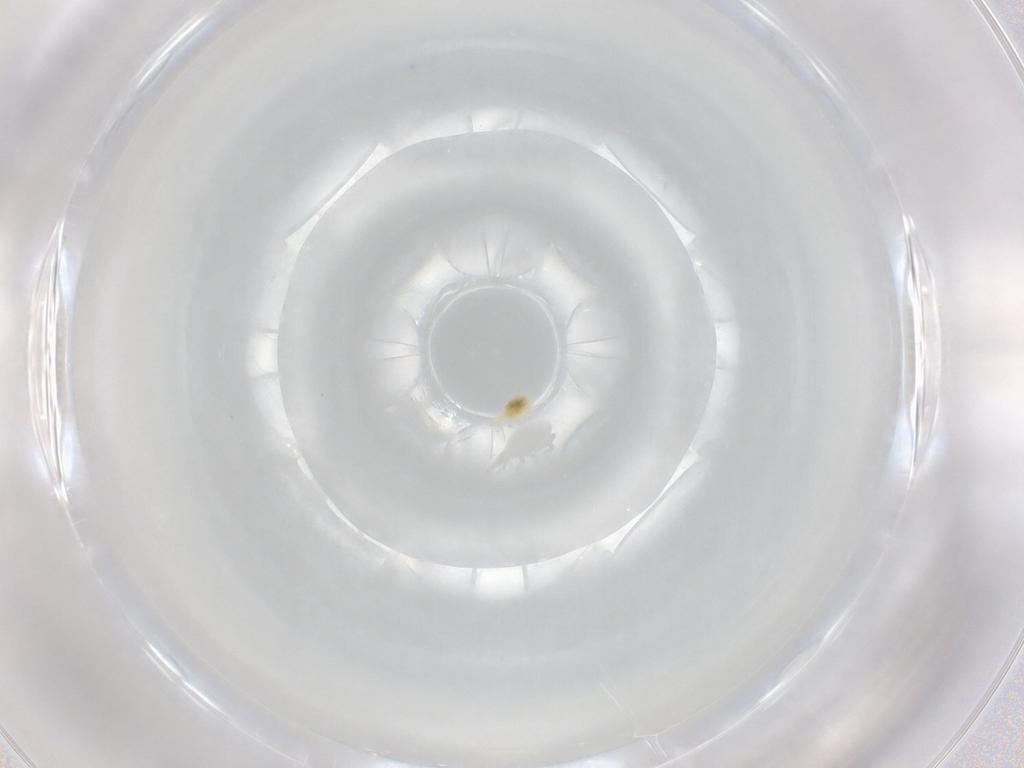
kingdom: Animalia
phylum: Arthropoda
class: Arachnida
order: Trombidiformes
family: Bdellidae
